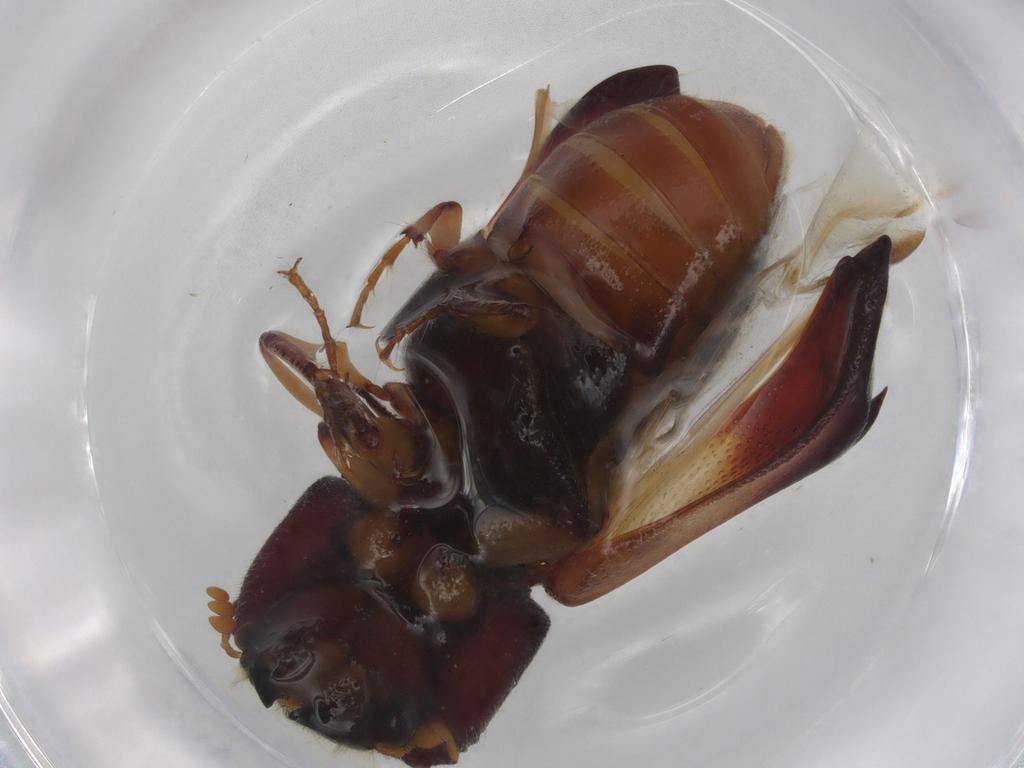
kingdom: Animalia
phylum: Arthropoda
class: Insecta
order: Coleoptera
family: Bostrichidae
